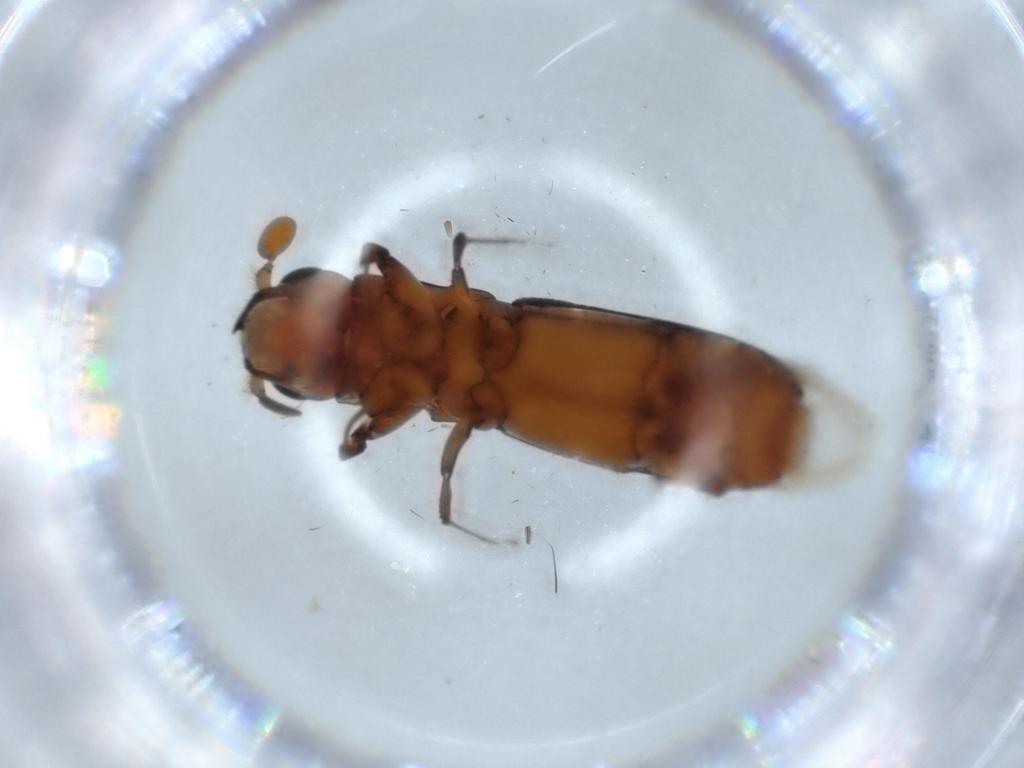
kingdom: Animalia
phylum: Arthropoda
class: Insecta
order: Coleoptera
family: Curculionidae
